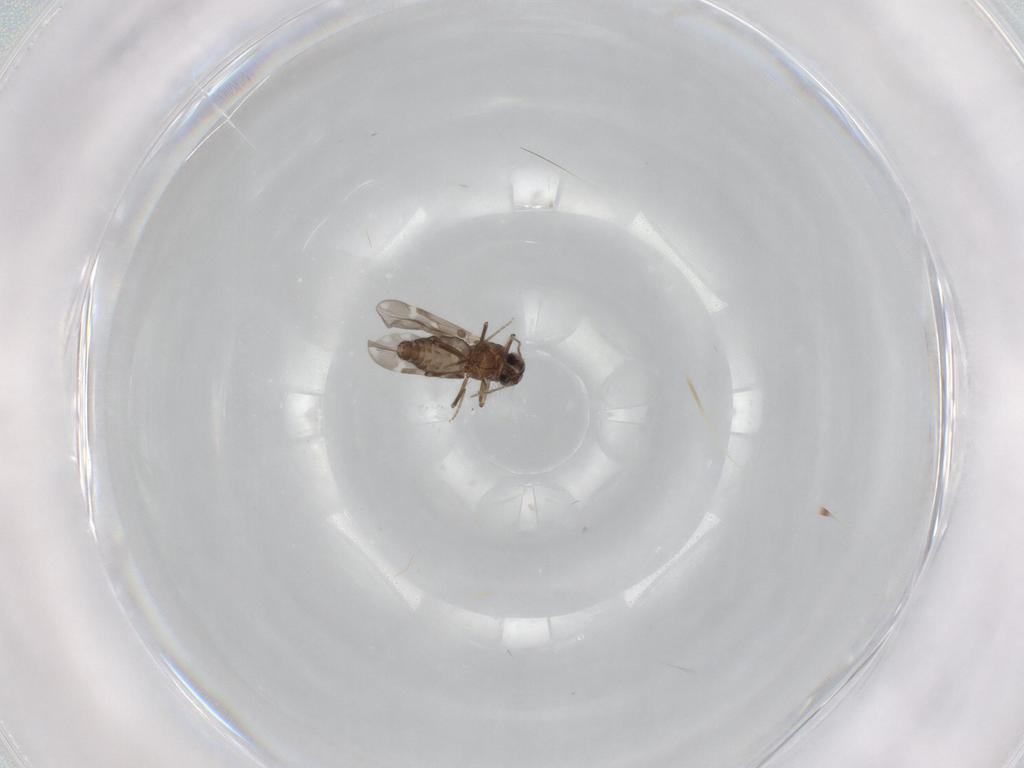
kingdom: Animalia
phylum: Arthropoda
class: Insecta
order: Diptera
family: Ceratopogonidae
